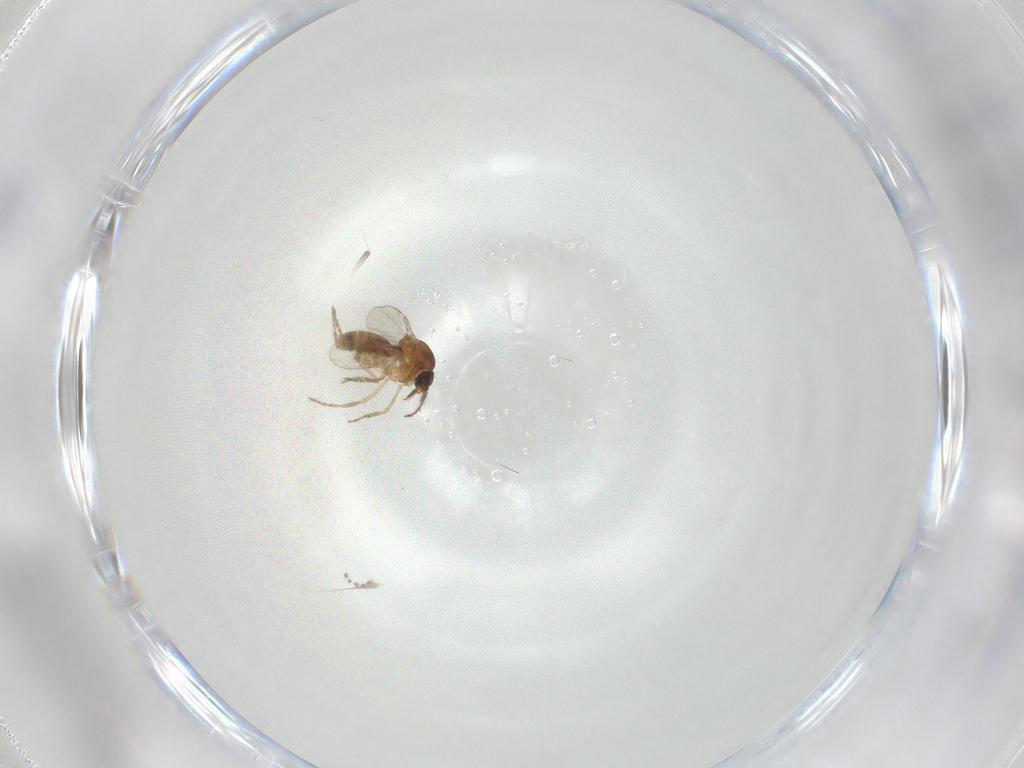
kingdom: Animalia
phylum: Arthropoda
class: Insecta
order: Diptera
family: Ceratopogonidae
